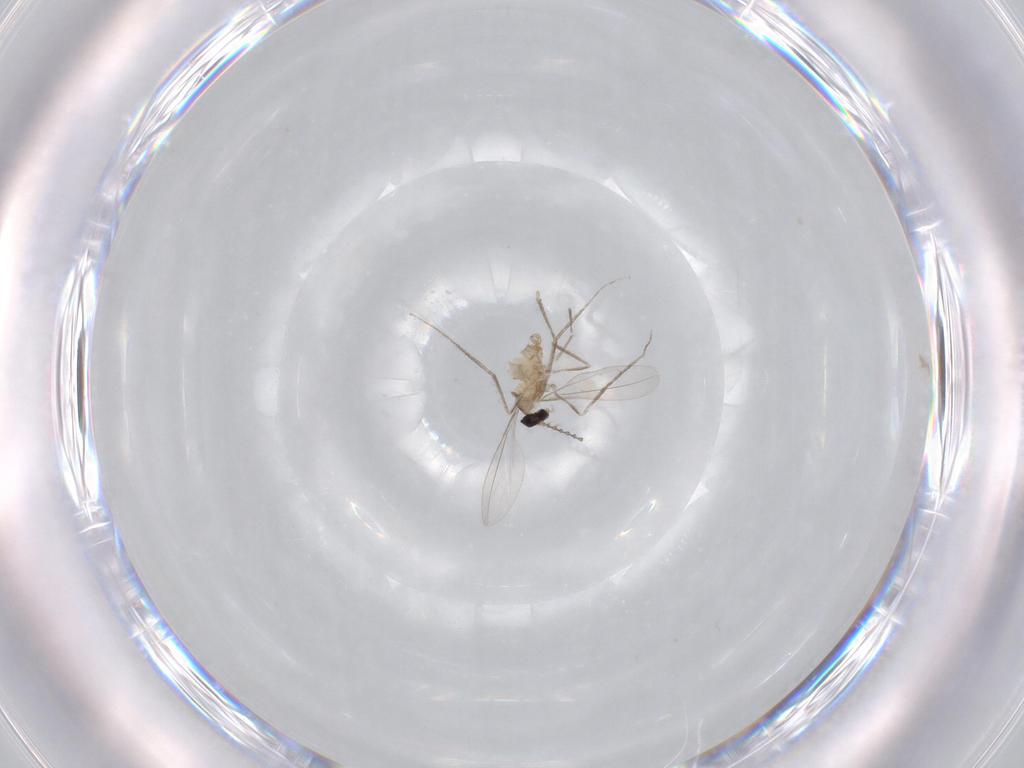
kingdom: Animalia
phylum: Arthropoda
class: Insecta
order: Diptera
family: Cecidomyiidae
